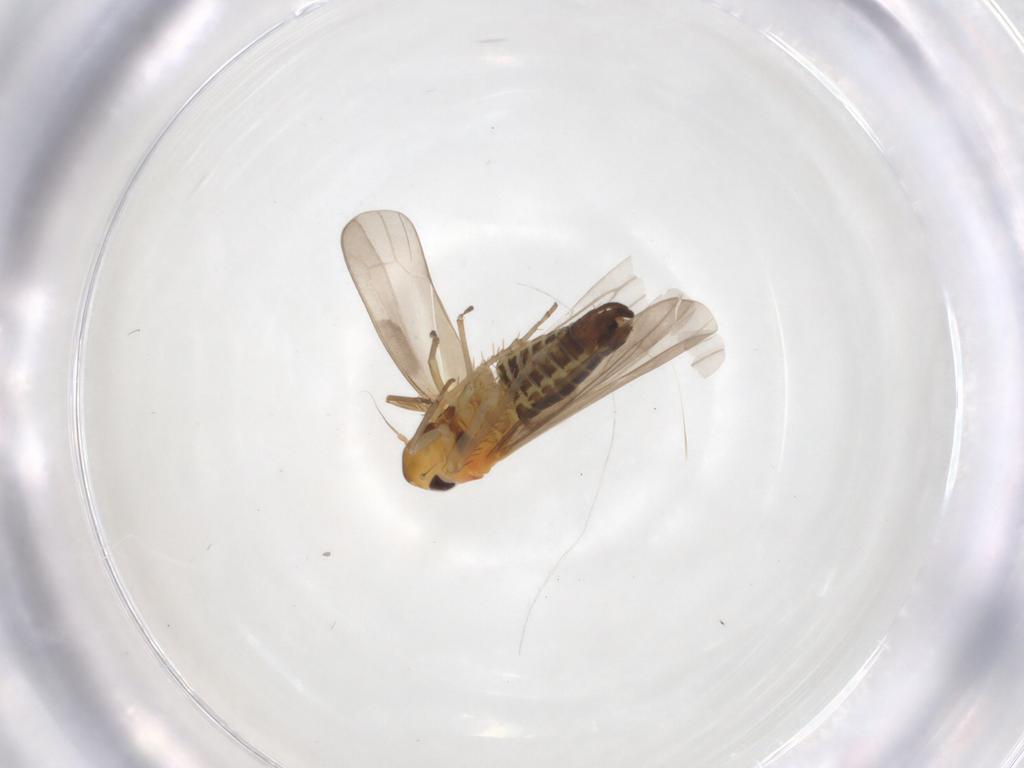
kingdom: Animalia
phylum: Arthropoda
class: Insecta
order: Hemiptera
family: Cicadellidae
